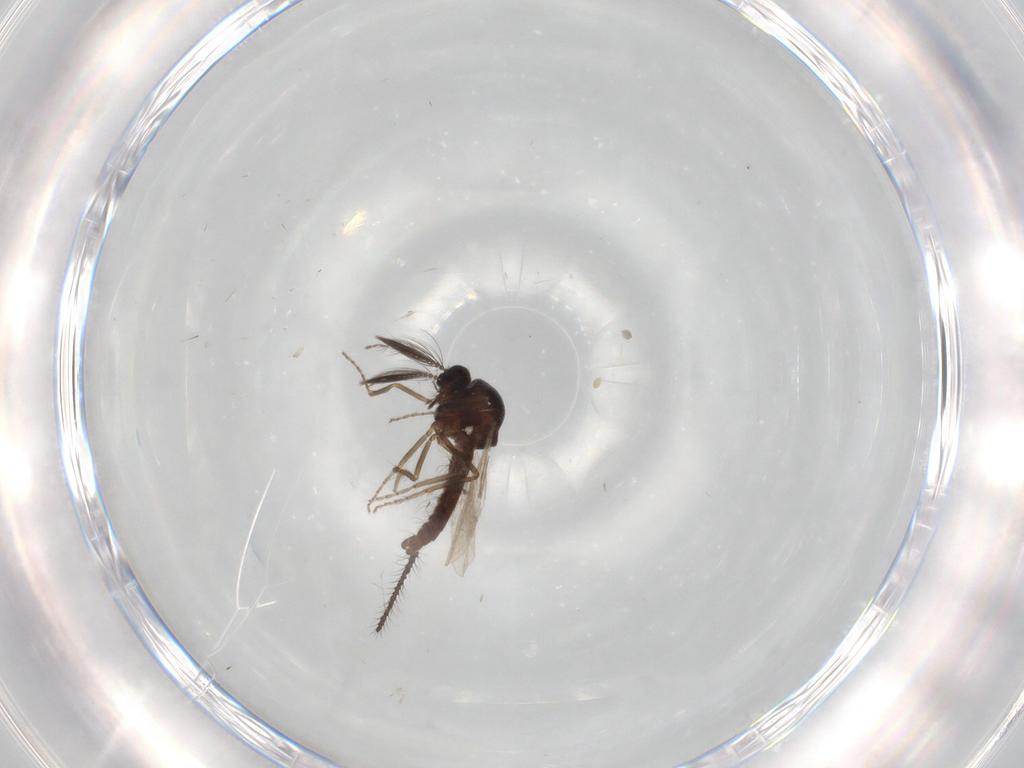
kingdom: Animalia
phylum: Arthropoda
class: Insecta
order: Diptera
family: Ceratopogonidae
